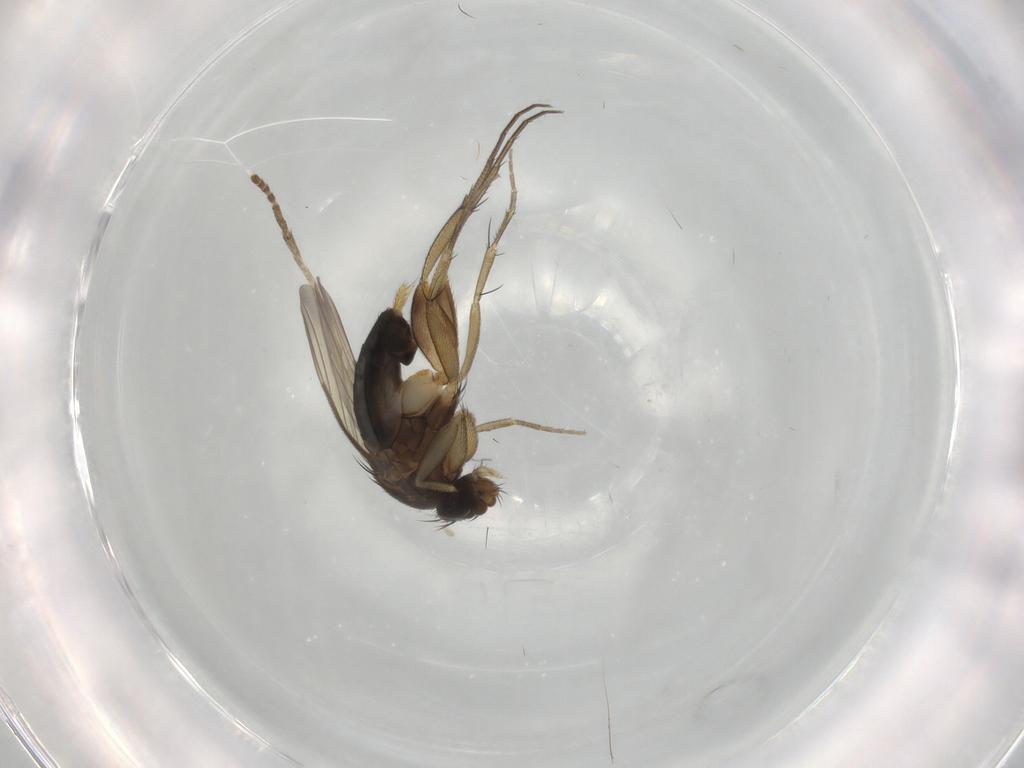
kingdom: Animalia
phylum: Arthropoda
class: Insecta
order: Diptera
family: Psychodidae
